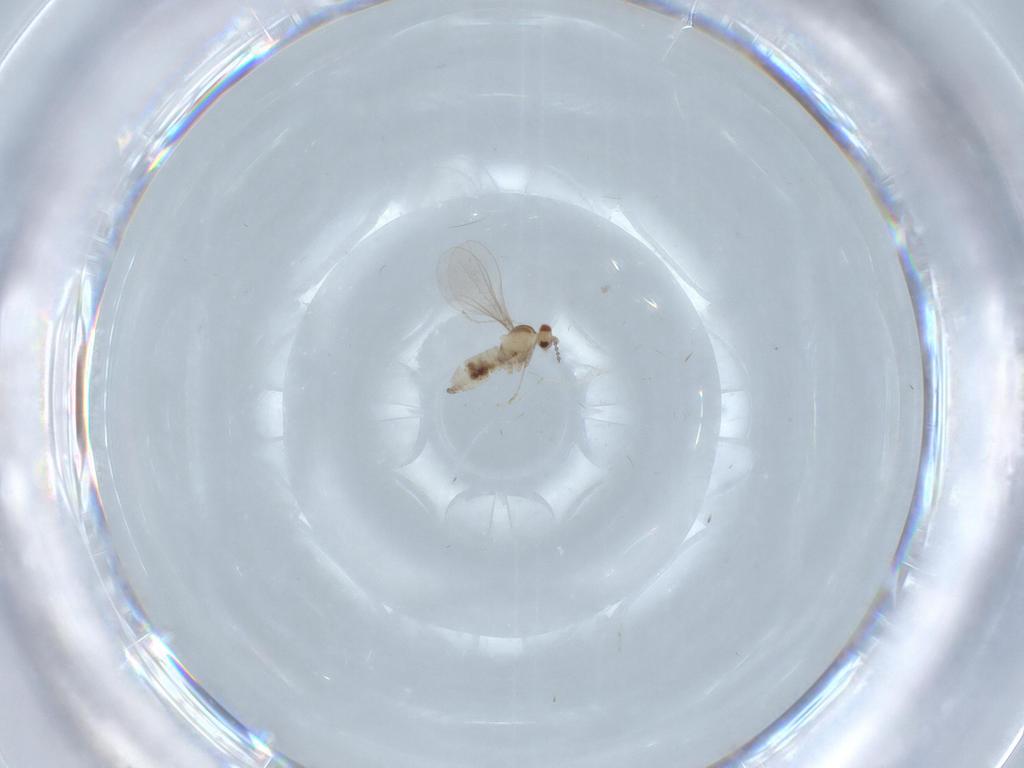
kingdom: Animalia
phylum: Arthropoda
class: Insecta
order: Diptera
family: Cecidomyiidae
